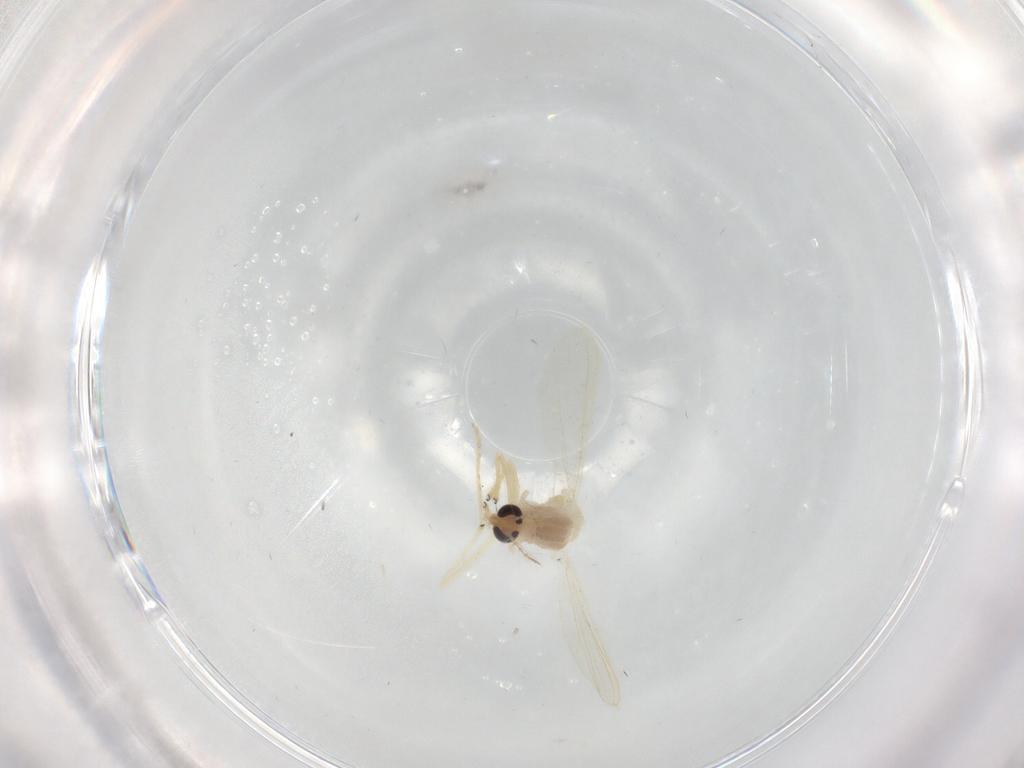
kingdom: Animalia
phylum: Arthropoda
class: Insecta
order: Diptera
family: Chironomidae
